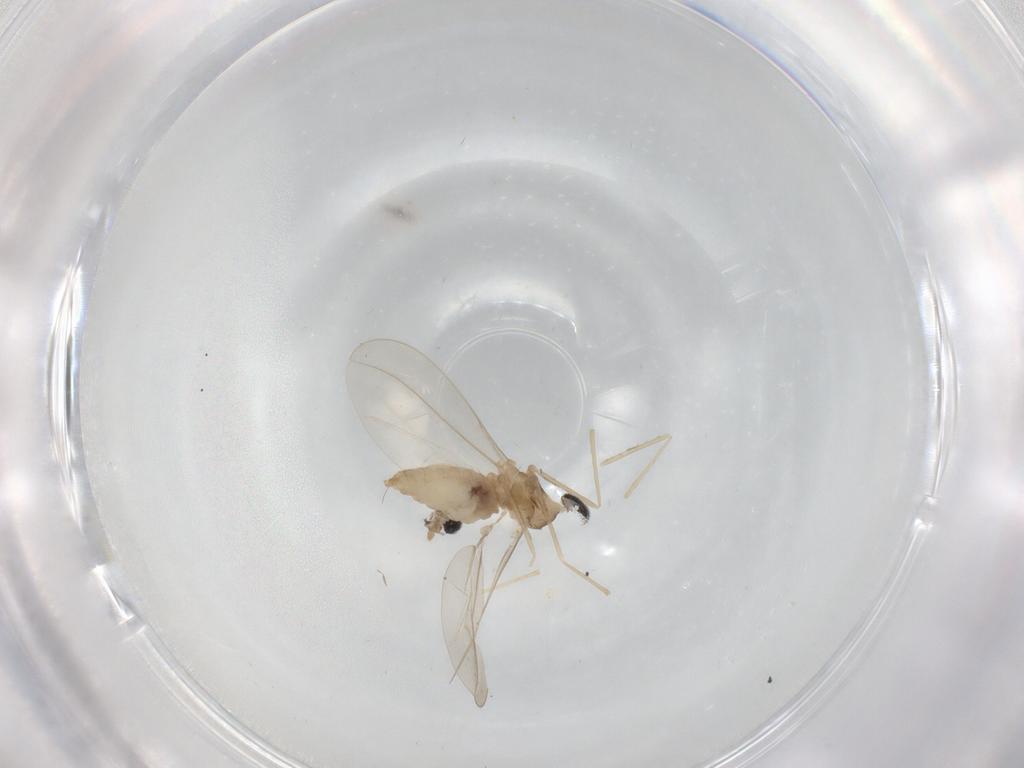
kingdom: Animalia
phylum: Arthropoda
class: Insecta
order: Diptera
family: Cecidomyiidae
